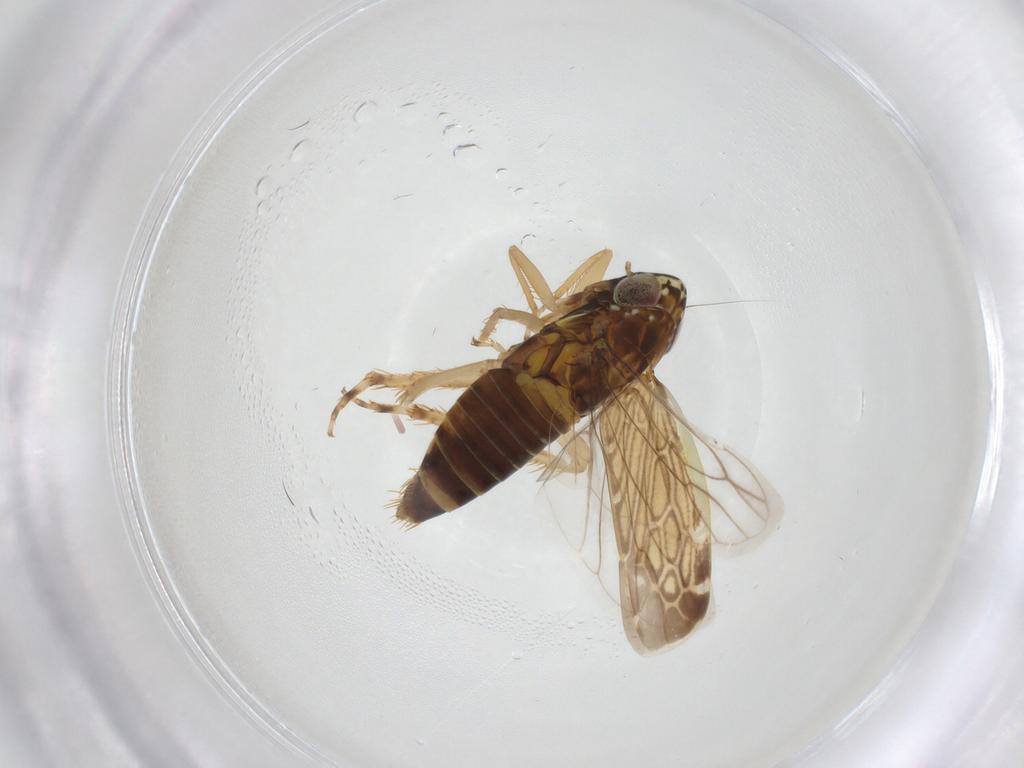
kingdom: Animalia
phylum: Arthropoda
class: Insecta
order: Hemiptera
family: Cicadellidae
